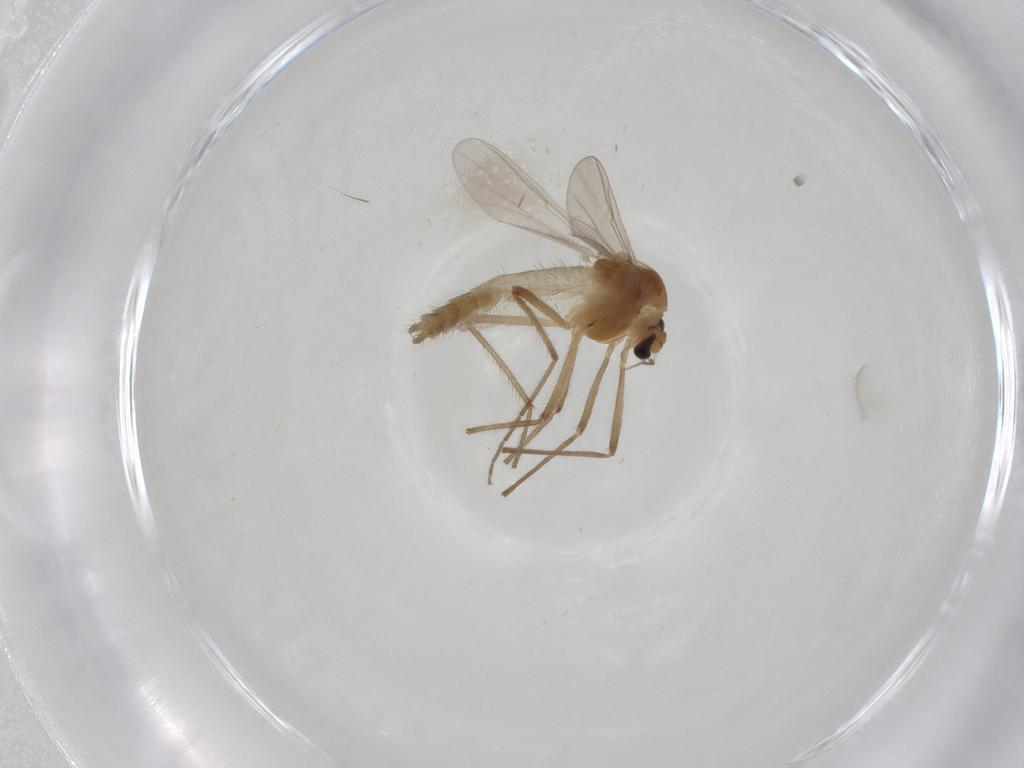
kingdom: Animalia
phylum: Arthropoda
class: Insecta
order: Diptera
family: Chironomidae
